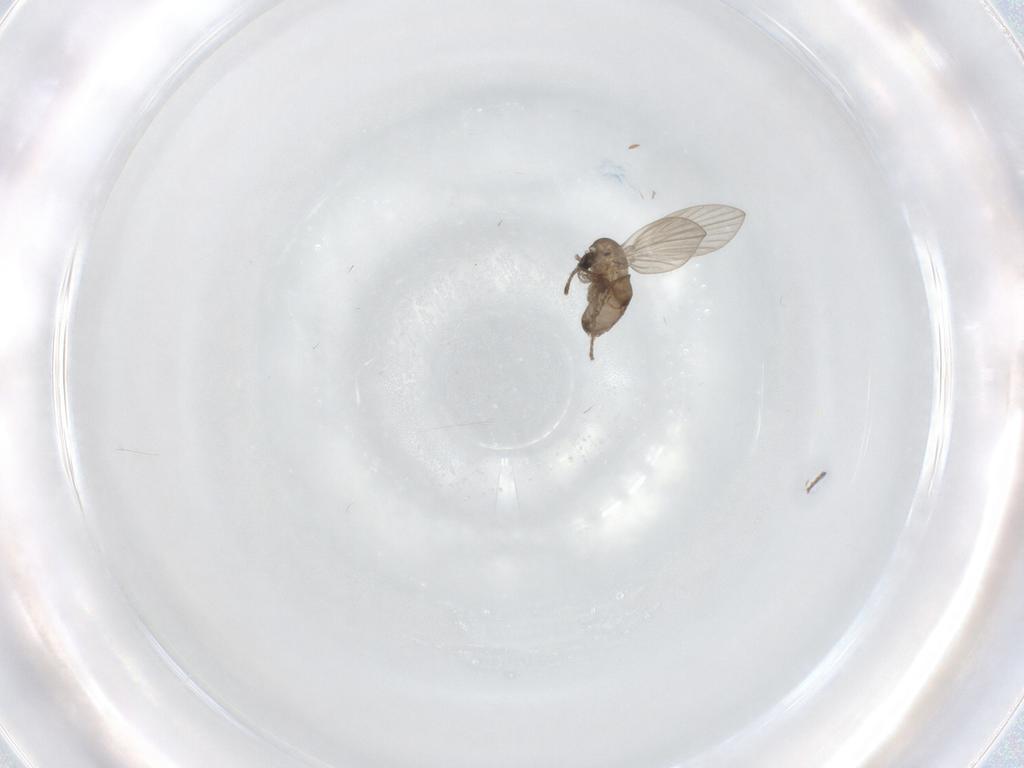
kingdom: Animalia
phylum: Arthropoda
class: Insecta
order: Diptera
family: Psychodidae
